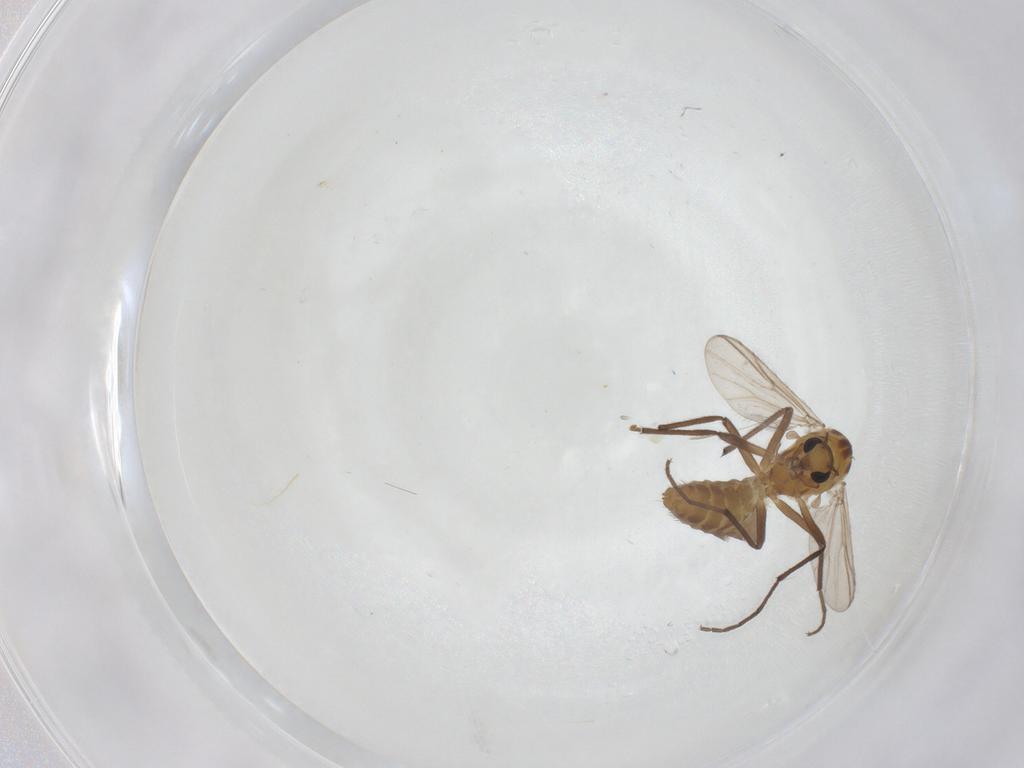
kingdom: Animalia
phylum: Arthropoda
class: Insecta
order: Diptera
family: Chironomidae
